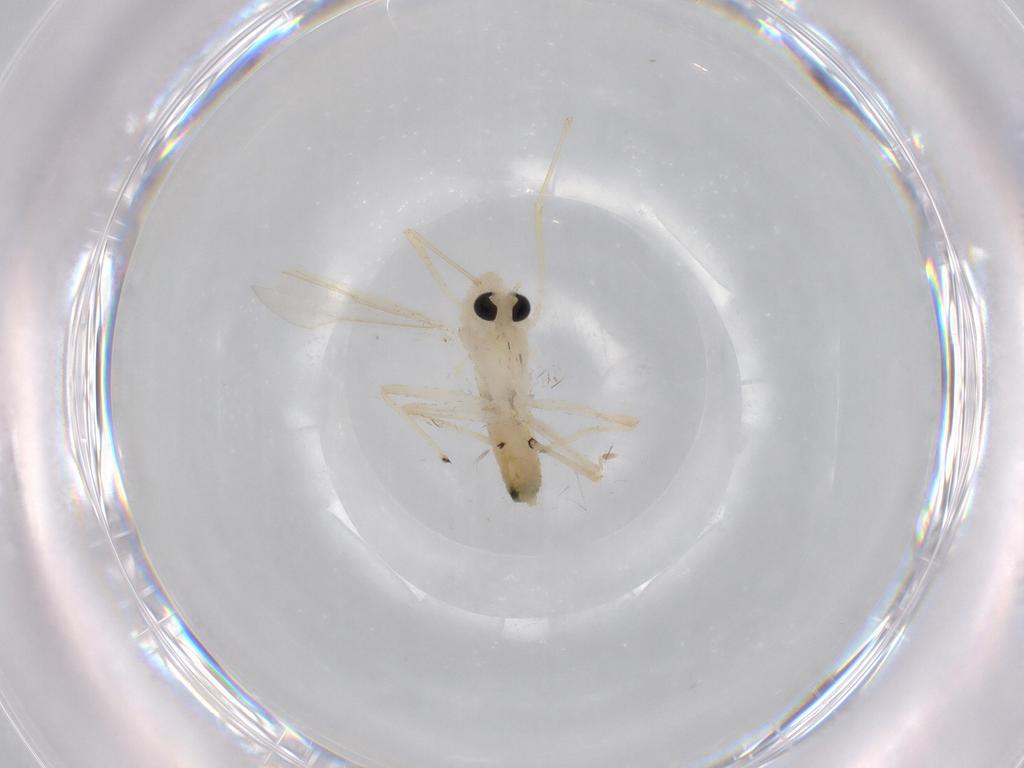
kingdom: Animalia
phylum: Arthropoda
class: Insecta
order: Diptera
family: Chironomidae
